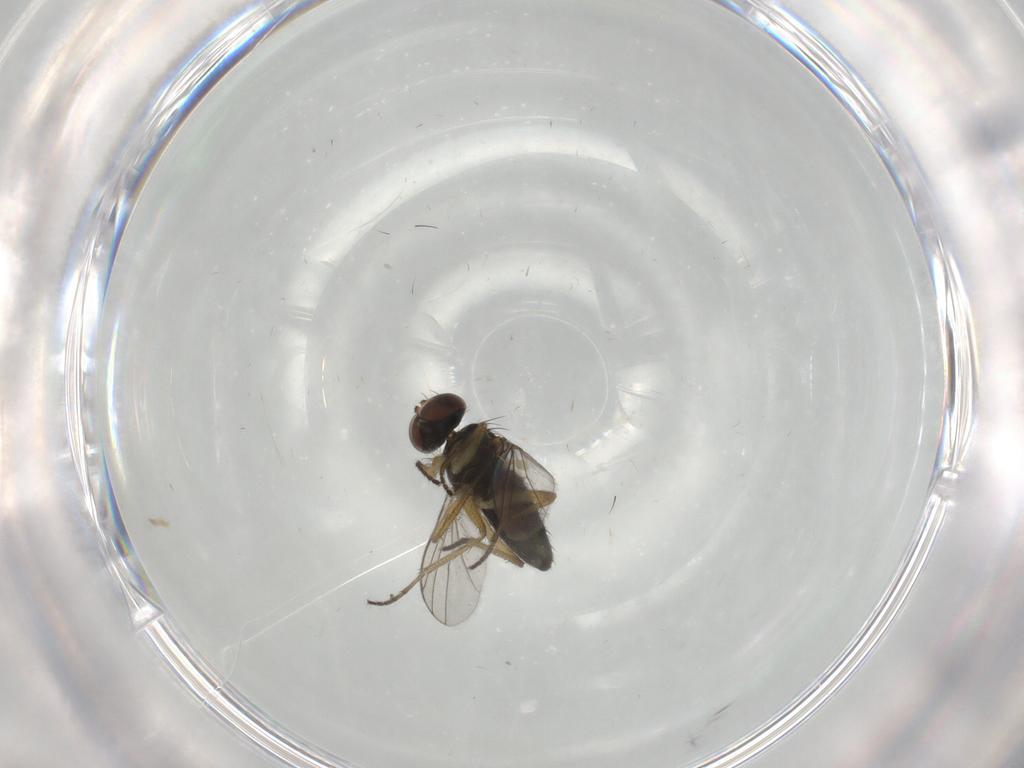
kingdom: Animalia
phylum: Arthropoda
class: Insecta
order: Diptera
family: Dolichopodidae
